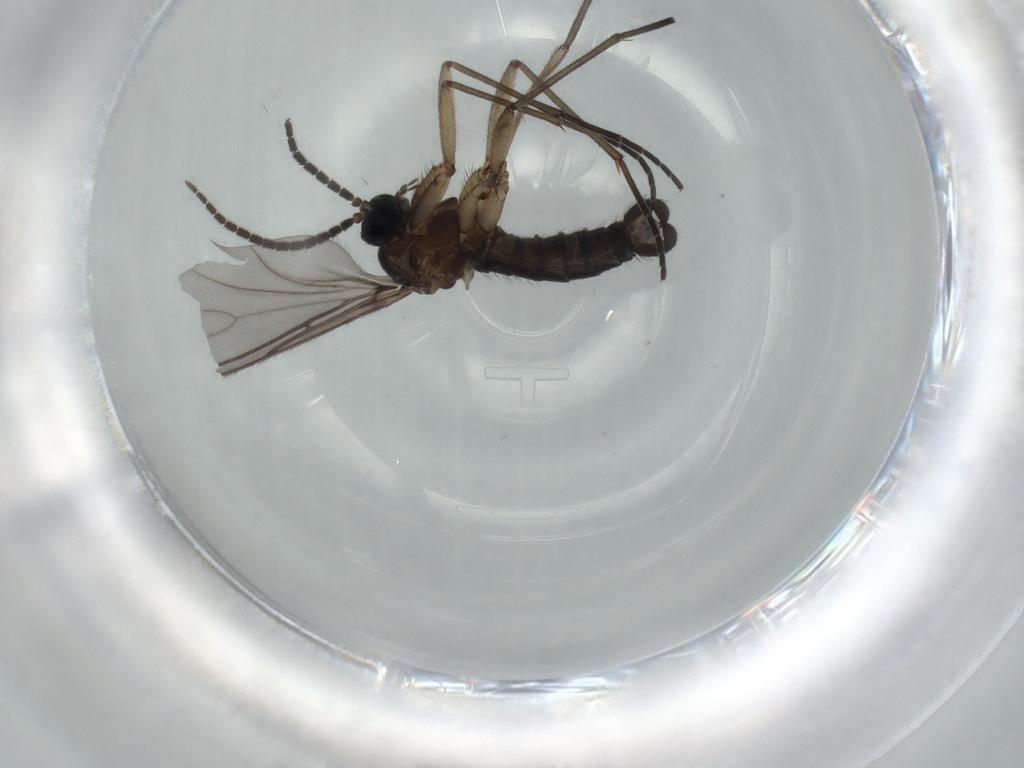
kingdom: Animalia
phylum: Arthropoda
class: Insecta
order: Diptera
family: Sciaridae
